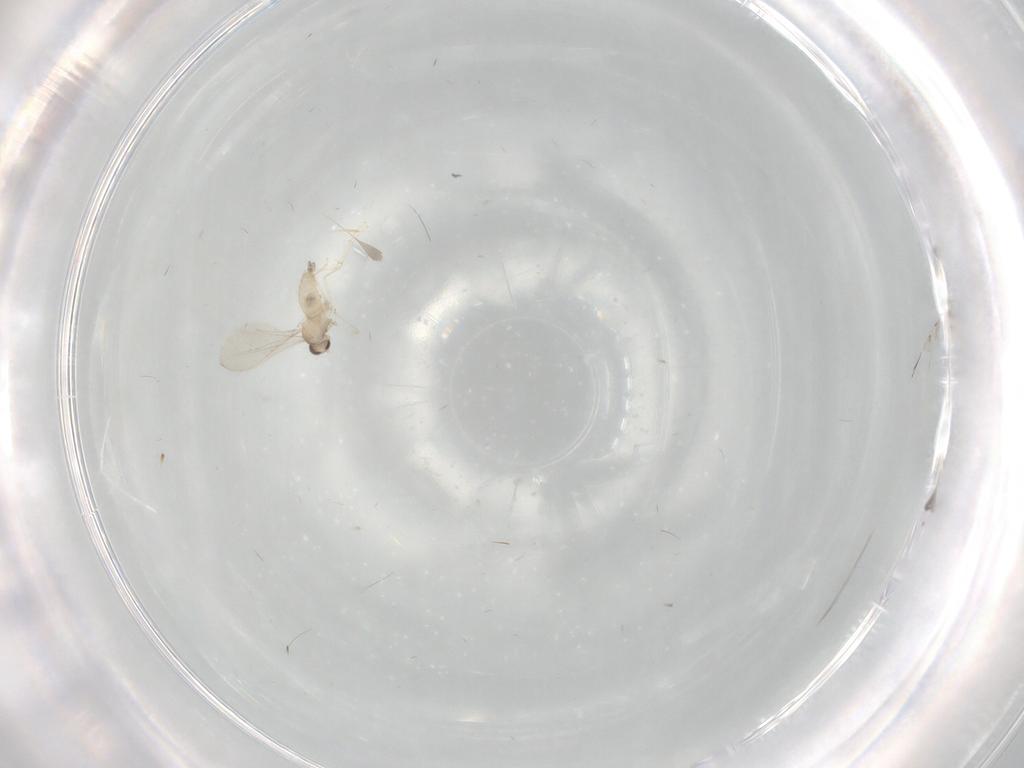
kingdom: Animalia
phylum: Arthropoda
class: Insecta
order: Diptera
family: Cecidomyiidae
